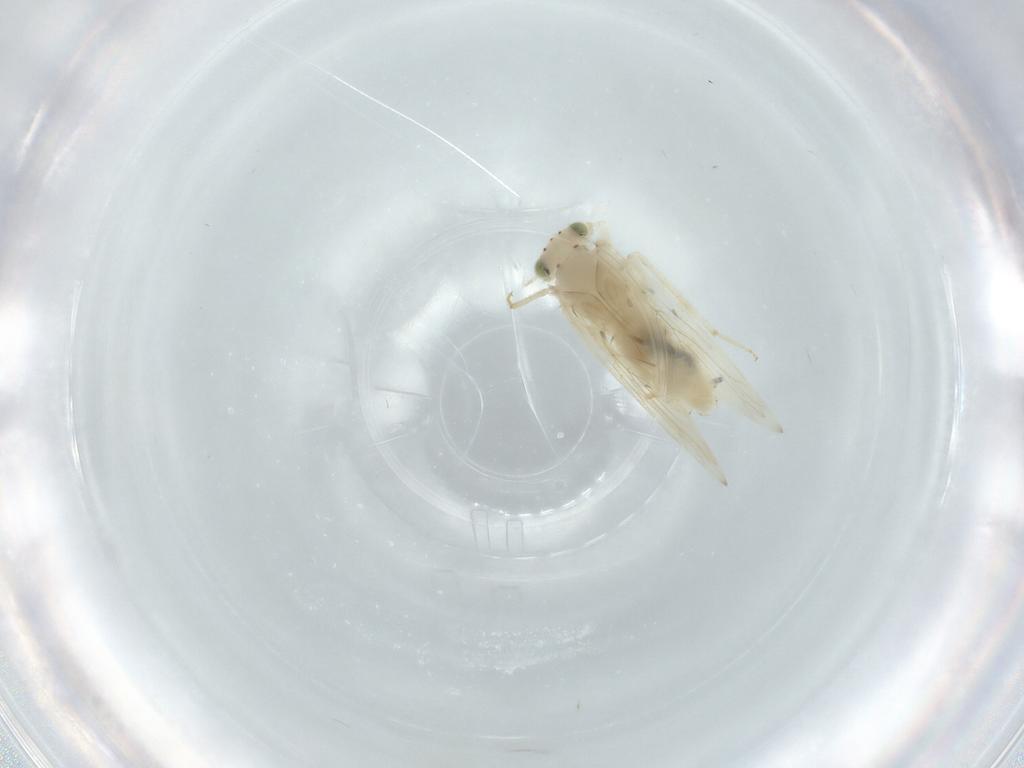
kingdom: Animalia
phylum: Arthropoda
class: Insecta
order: Psocodea
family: Lepidopsocidae
